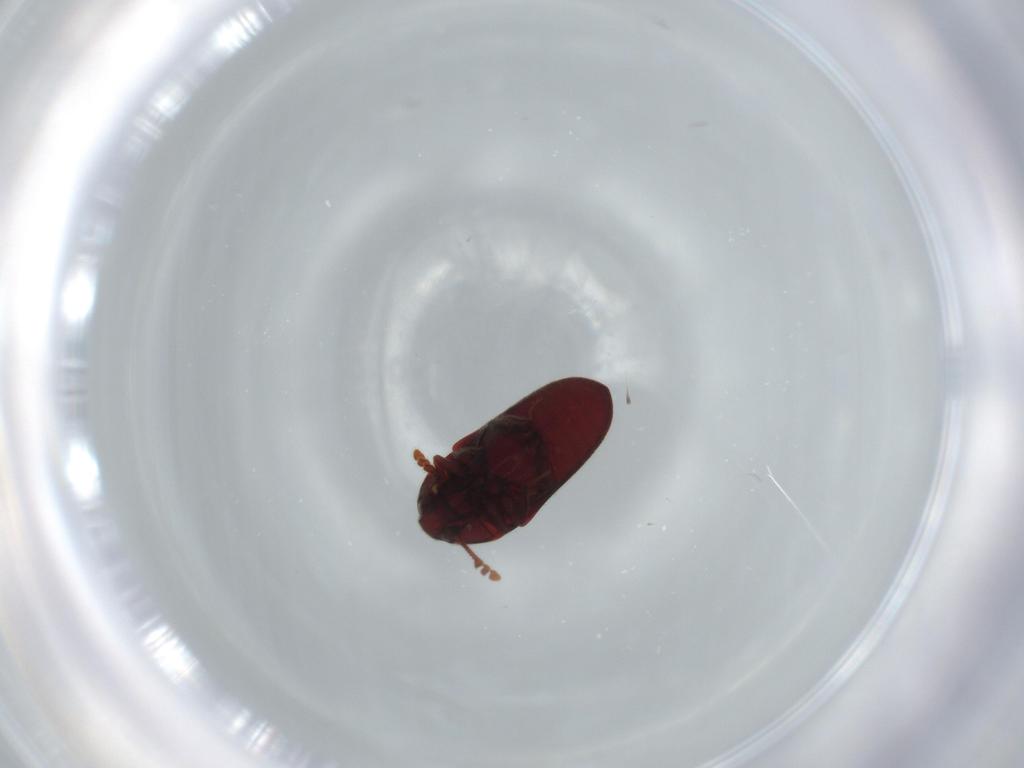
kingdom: Animalia
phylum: Arthropoda
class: Insecta
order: Coleoptera
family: Throscidae
